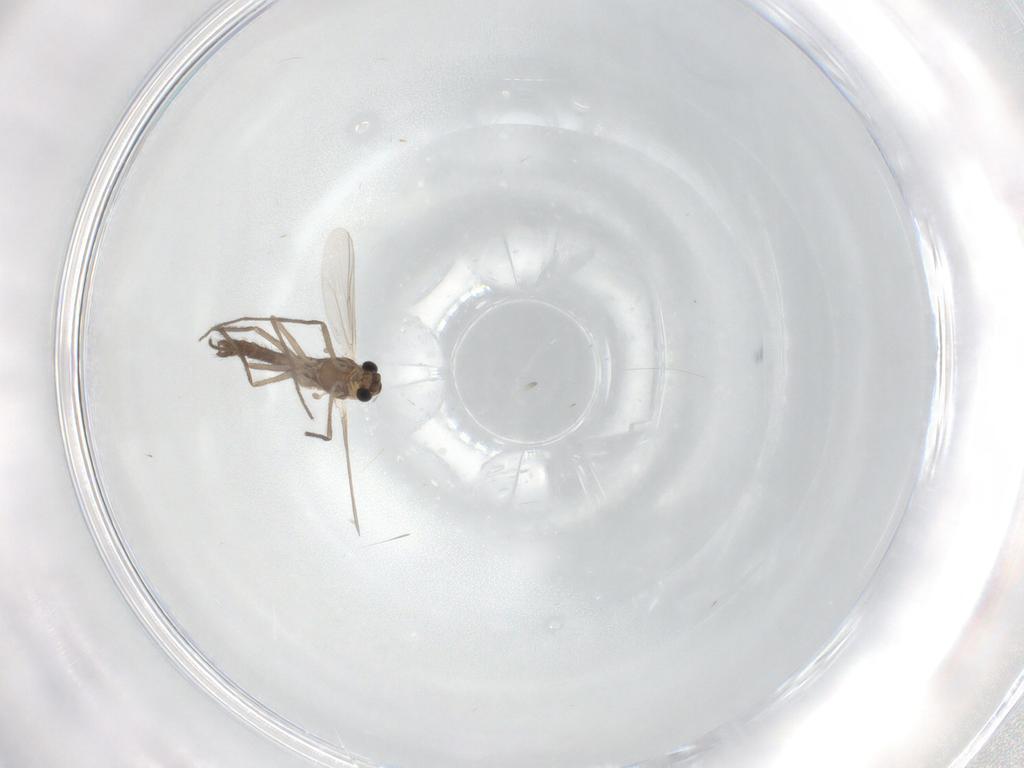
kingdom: Animalia
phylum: Arthropoda
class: Insecta
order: Diptera
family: Chironomidae
